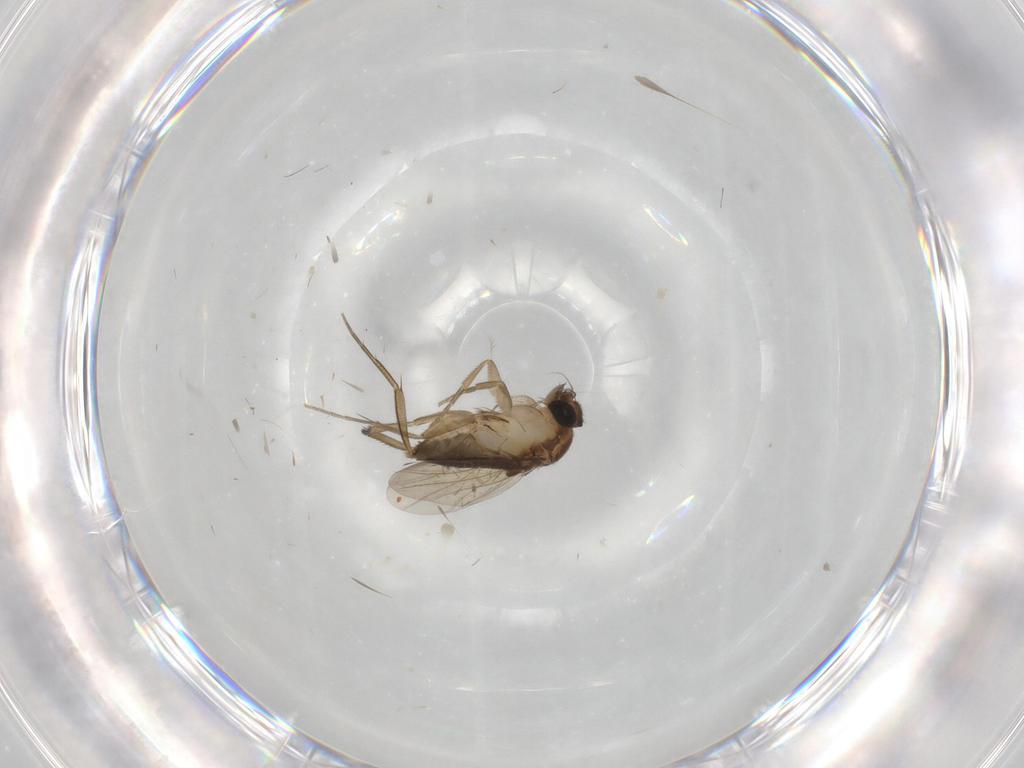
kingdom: Animalia
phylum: Arthropoda
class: Insecta
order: Diptera
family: Phoridae
